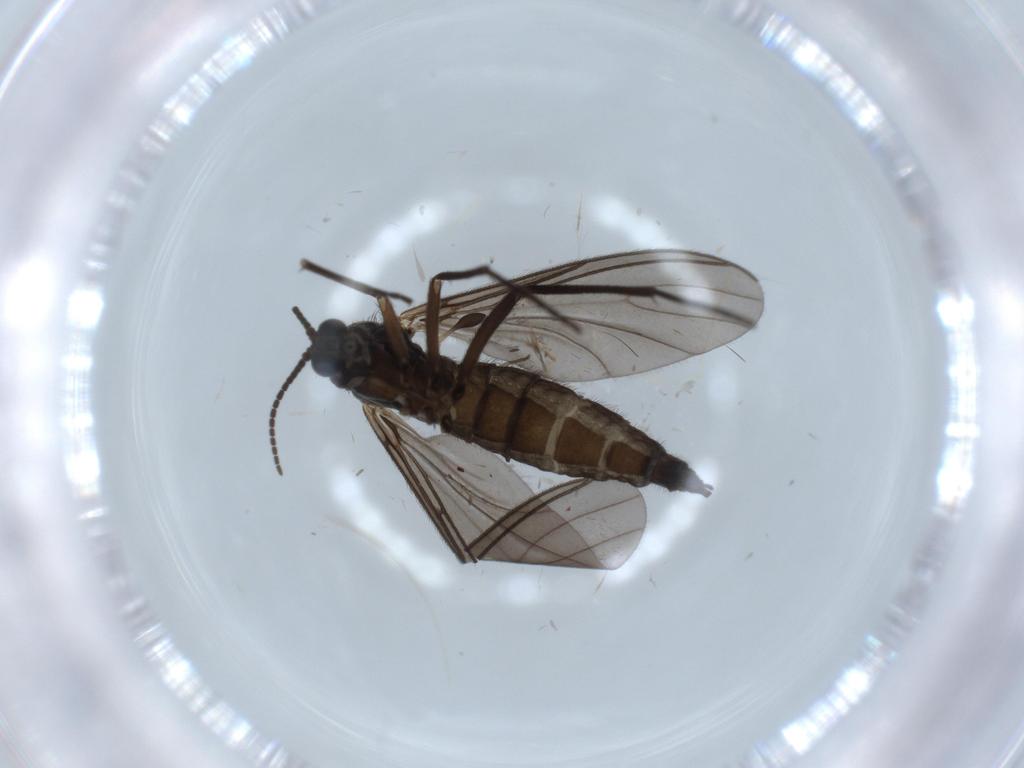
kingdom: Animalia
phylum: Arthropoda
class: Insecta
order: Diptera
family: Sciaridae
